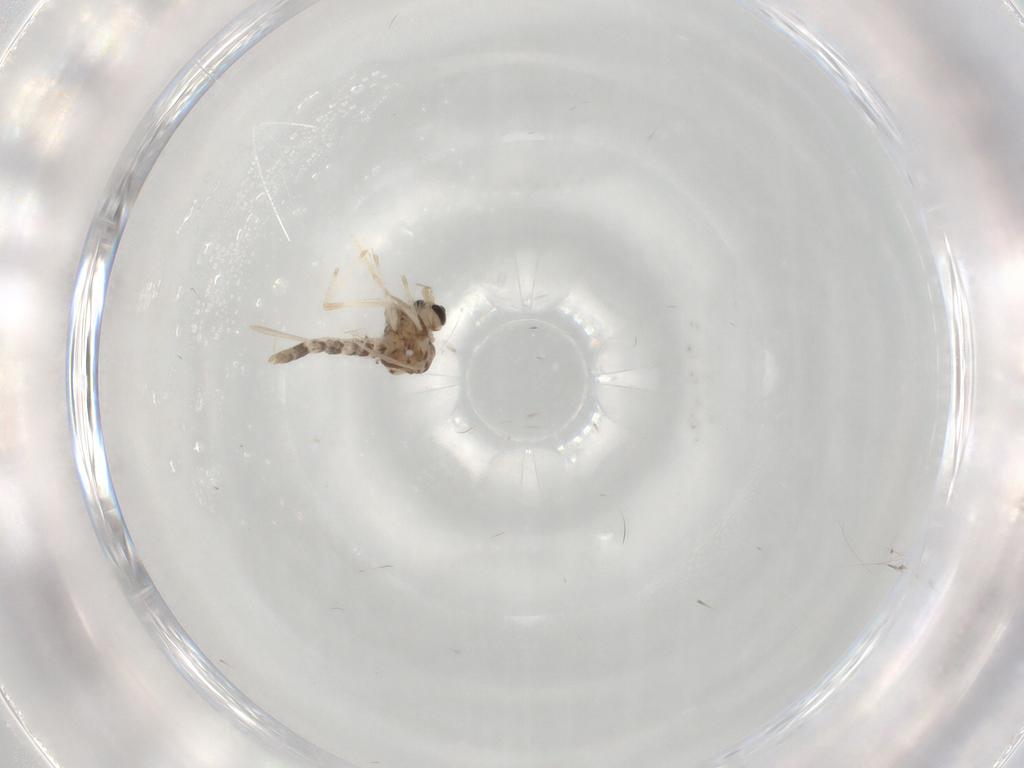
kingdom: Animalia
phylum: Arthropoda
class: Insecta
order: Diptera
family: Chironomidae
